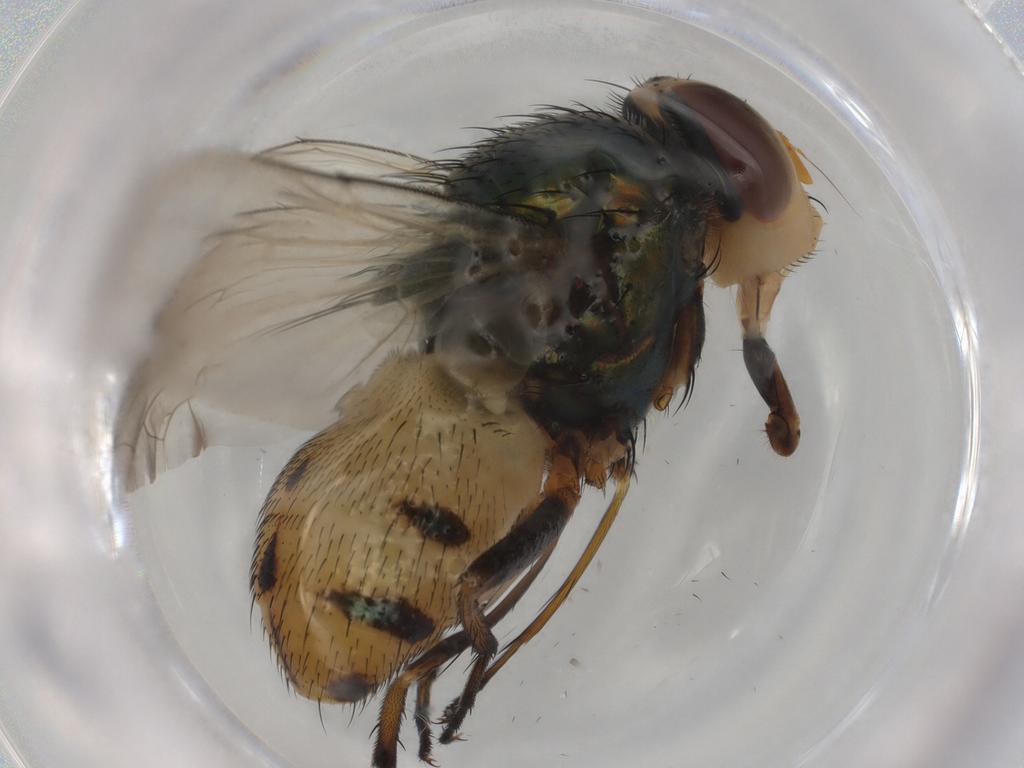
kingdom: Animalia
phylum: Arthropoda
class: Insecta
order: Diptera
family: Calliphoridae
